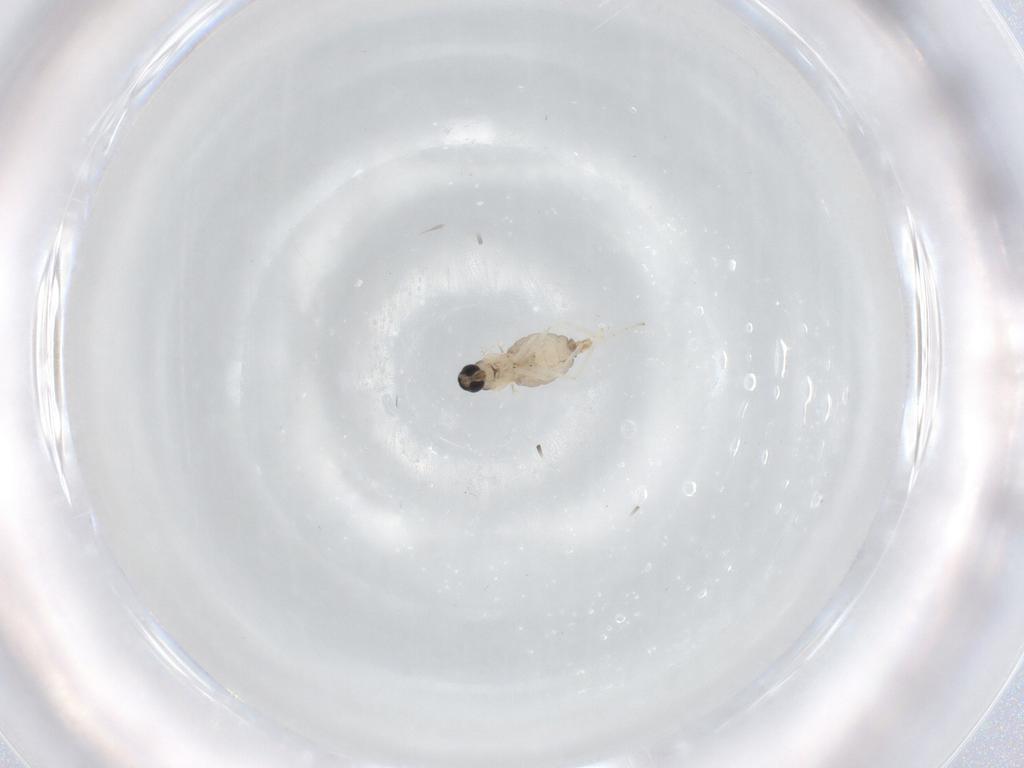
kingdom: Animalia
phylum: Arthropoda
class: Insecta
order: Diptera
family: Cecidomyiidae
